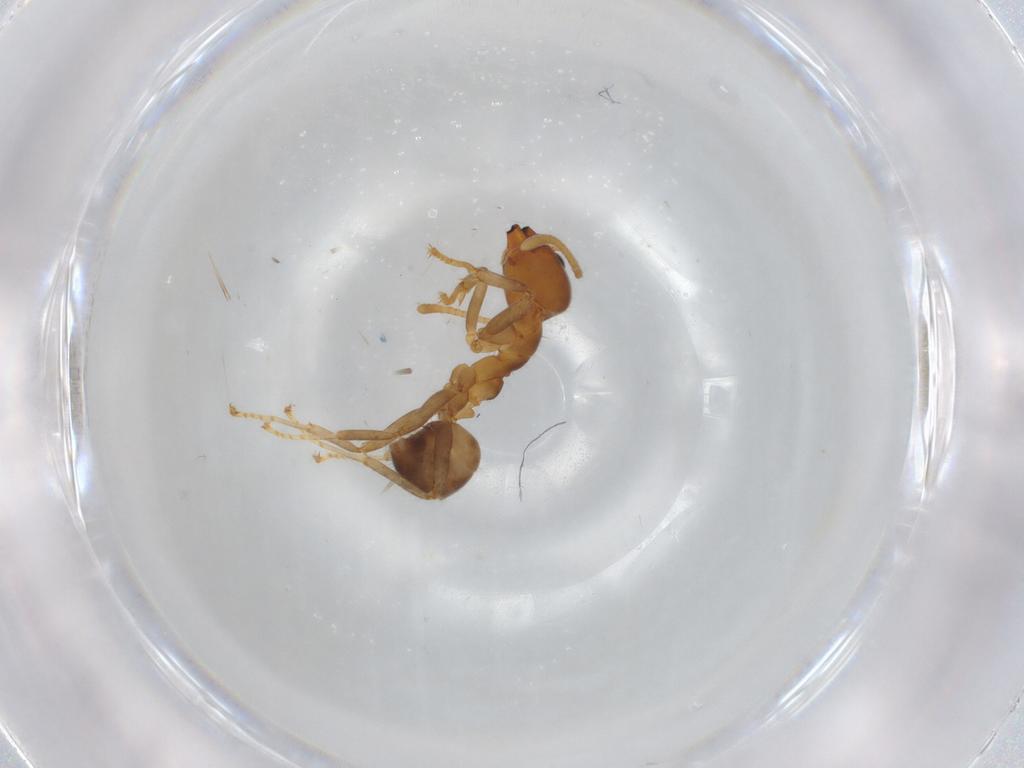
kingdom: Animalia
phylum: Arthropoda
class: Insecta
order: Hymenoptera
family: Formicidae
